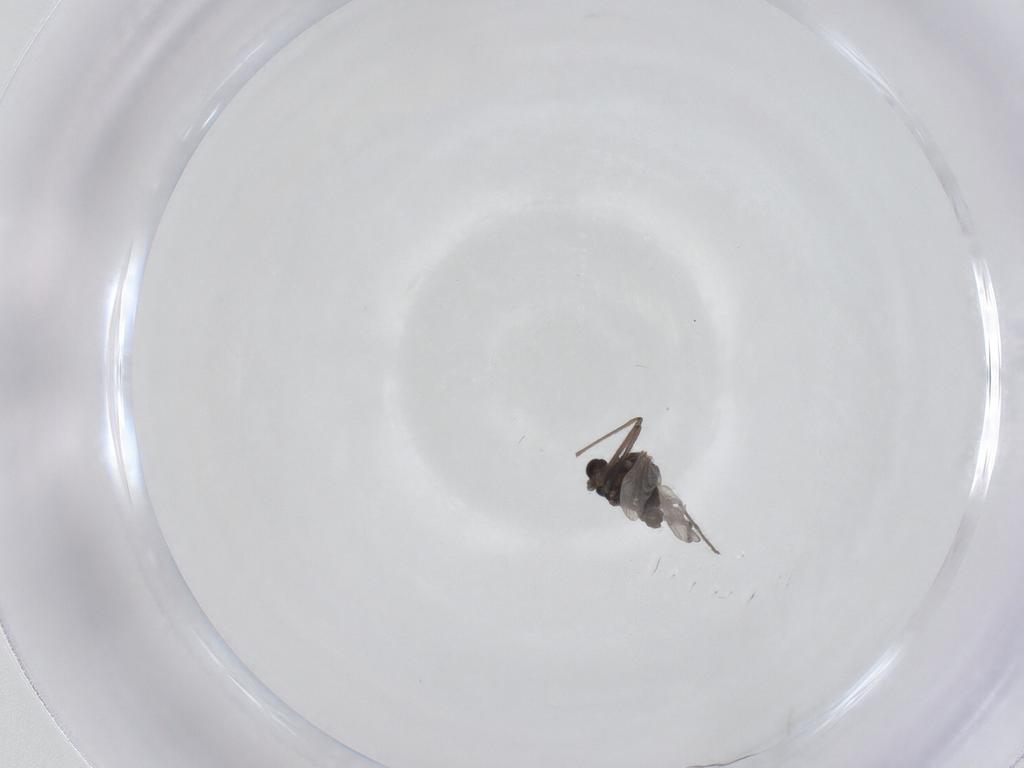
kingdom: Animalia
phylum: Arthropoda
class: Insecta
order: Diptera
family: Chironomidae
